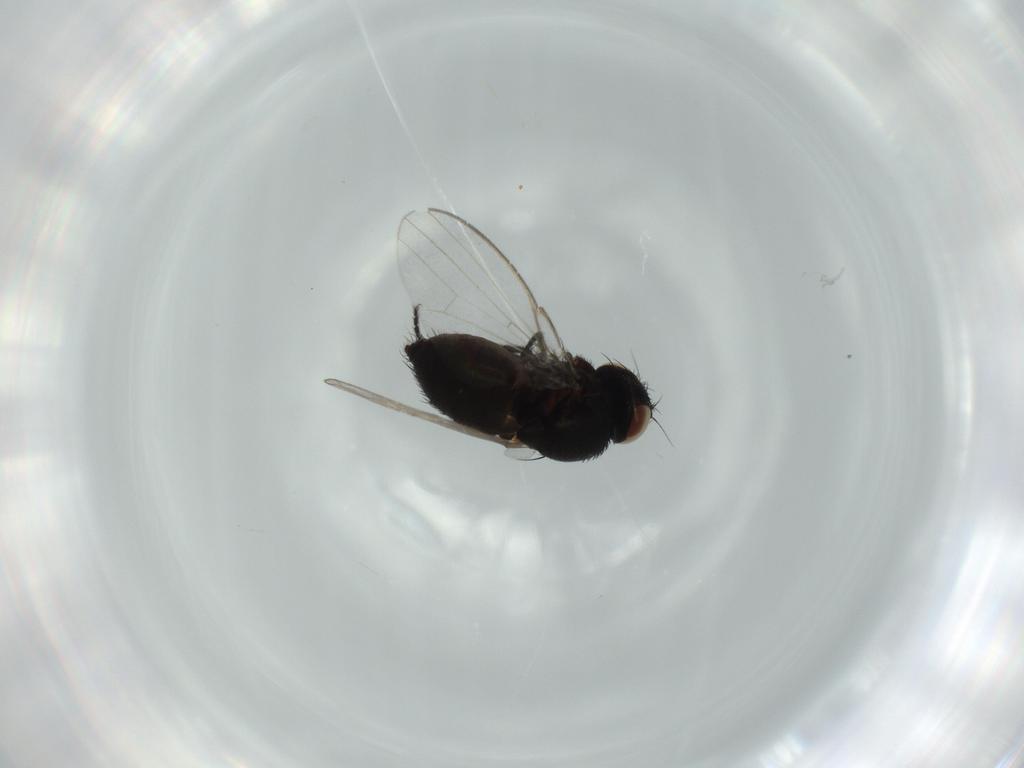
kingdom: Animalia
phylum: Arthropoda
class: Insecta
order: Diptera
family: Milichiidae
